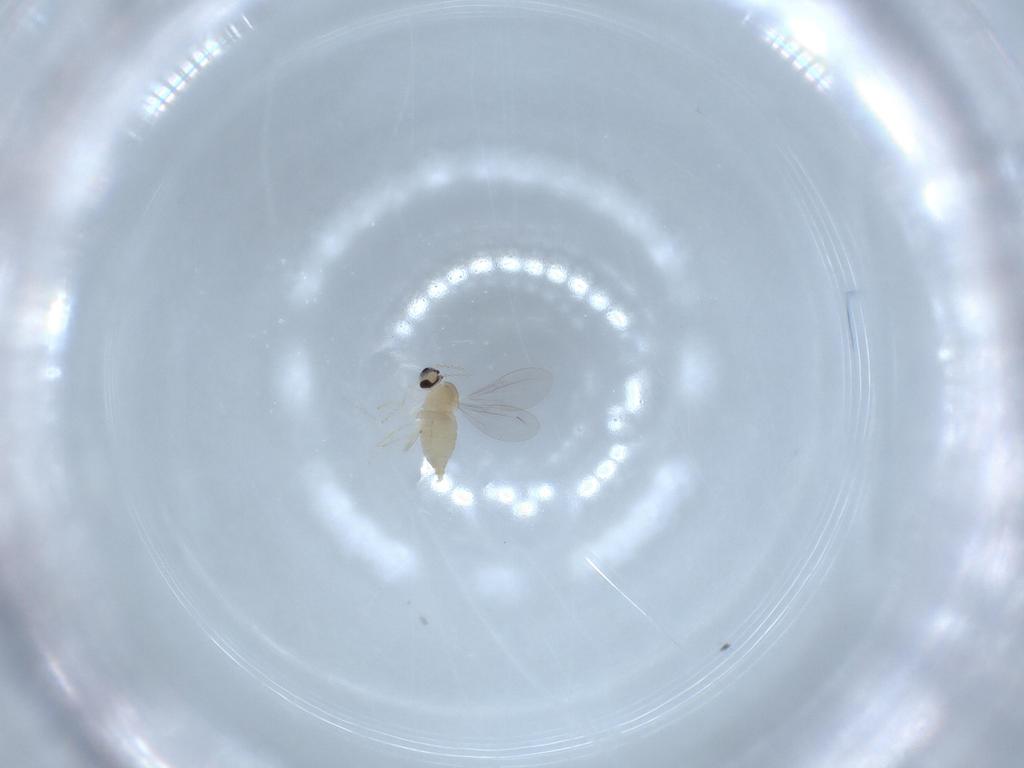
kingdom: Animalia
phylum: Arthropoda
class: Insecta
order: Diptera
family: Cecidomyiidae
